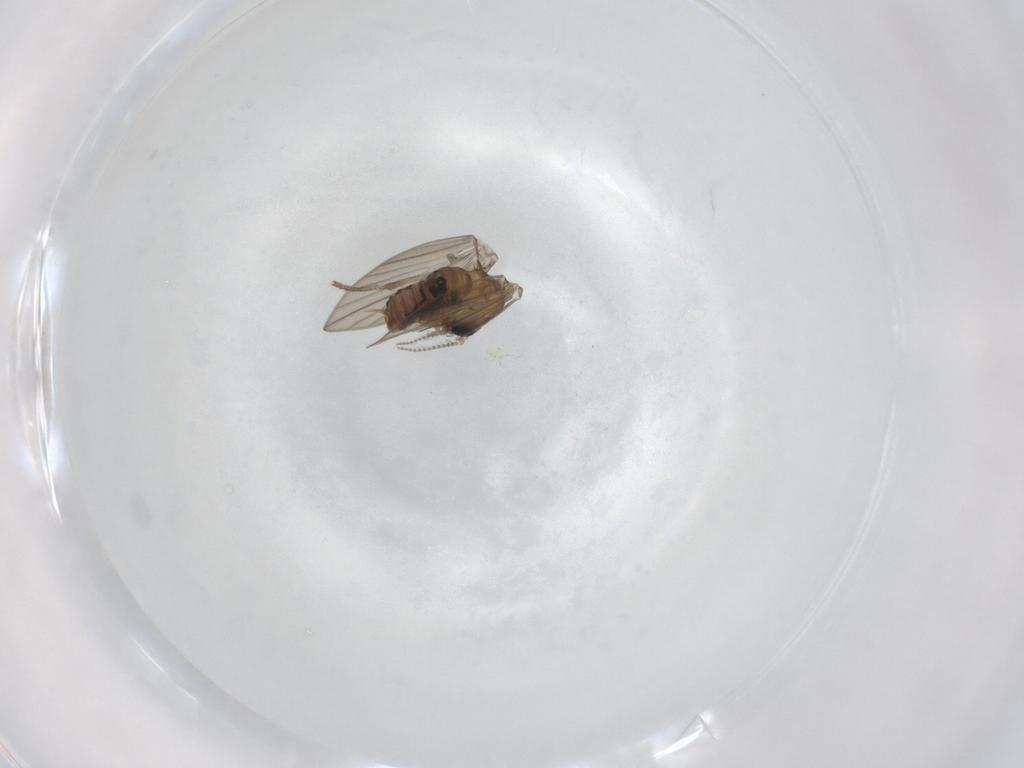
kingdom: Animalia
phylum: Arthropoda
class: Insecta
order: Diptera
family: Psychodidae
